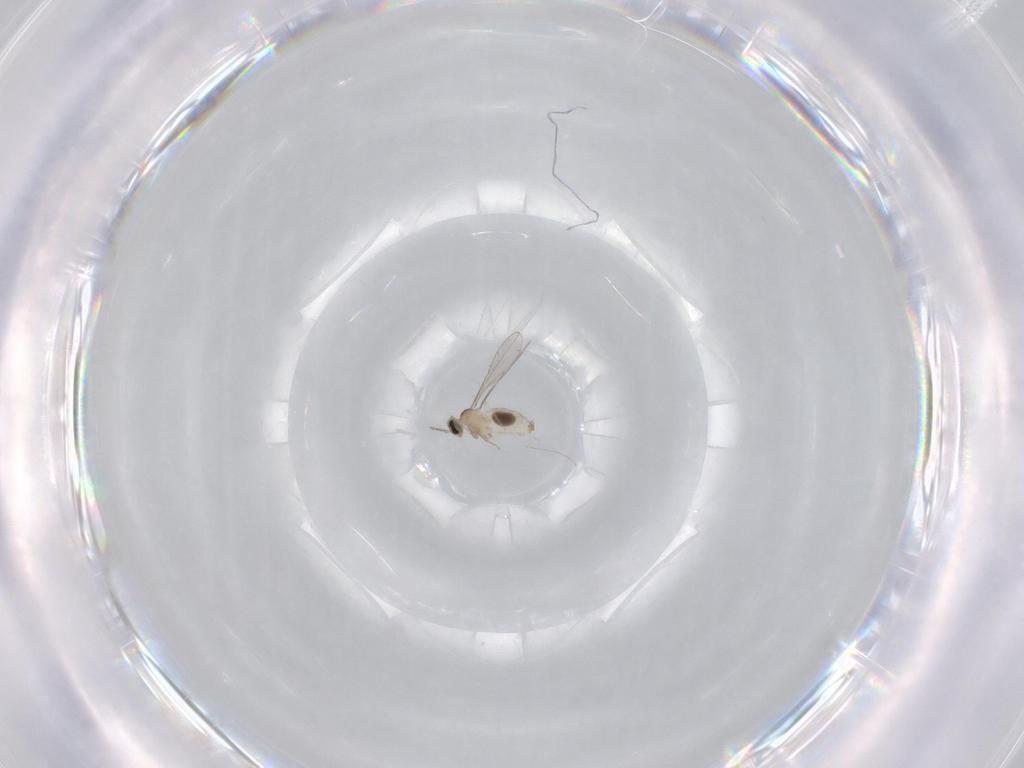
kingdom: Animalia
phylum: Arthropoda
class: Insecta
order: Diptera
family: Cecidomyiidae
